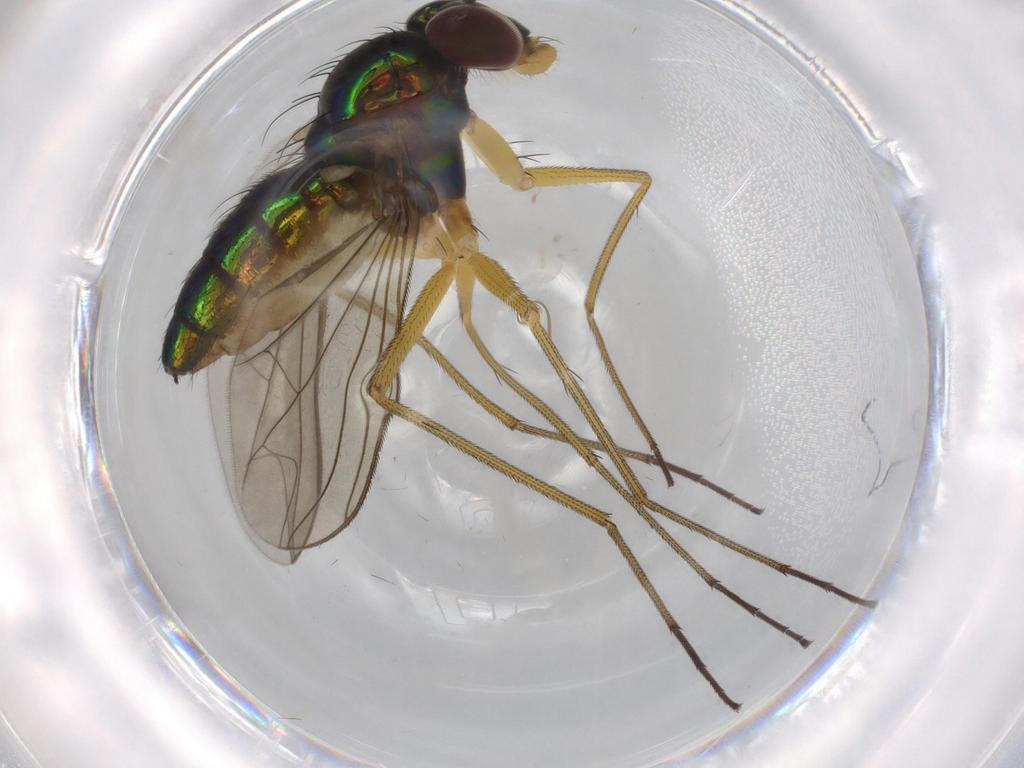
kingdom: Animalia
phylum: Arthropoda
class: Insecta
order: Diptera
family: Dolichopodidae
